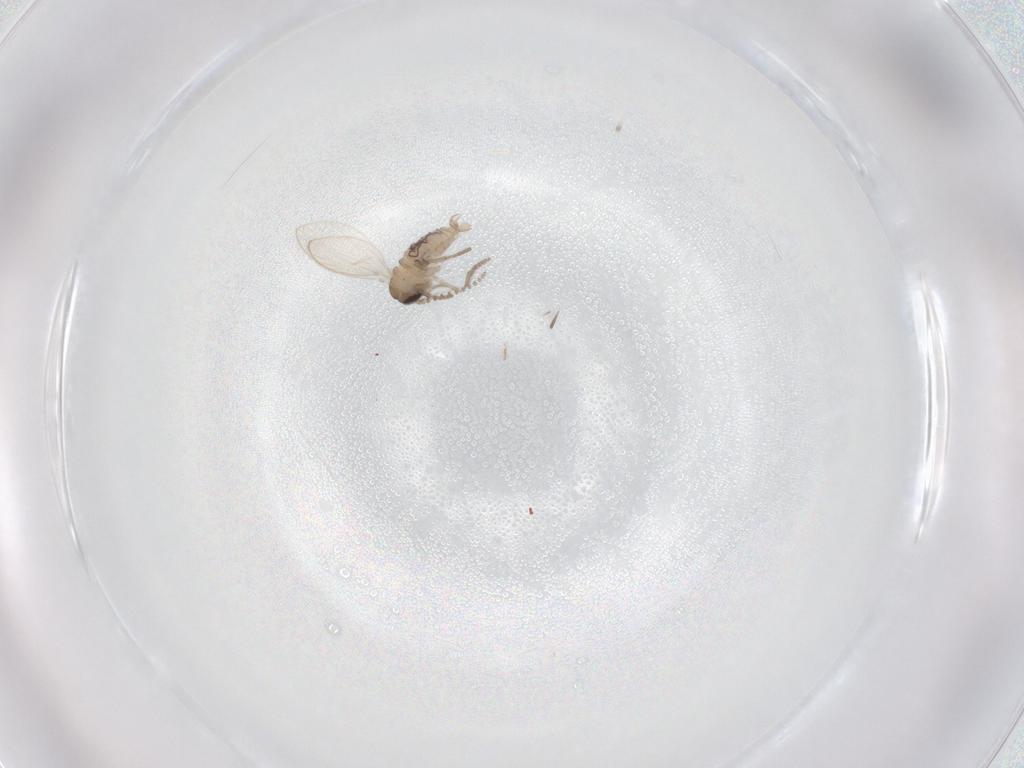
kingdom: Animalia
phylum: Arthropoda
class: Insecta
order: Diptera
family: Psychodidae
